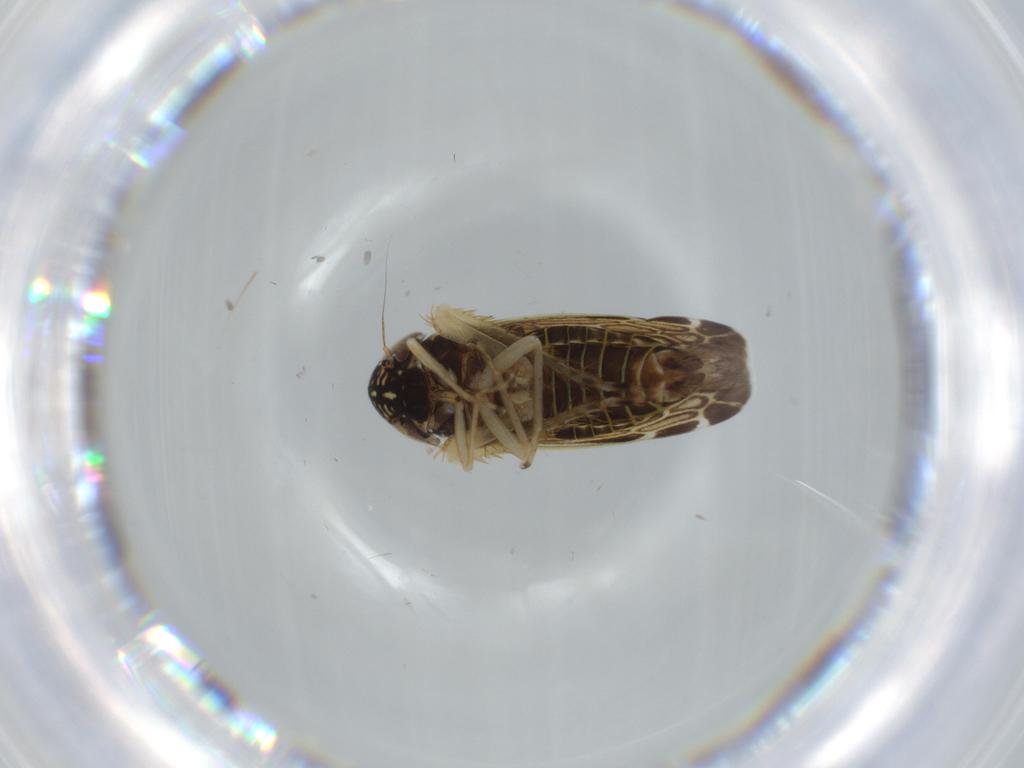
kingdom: Animalia
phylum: Arthropoda
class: Insecta
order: Hemiptera
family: Cicadellidae
